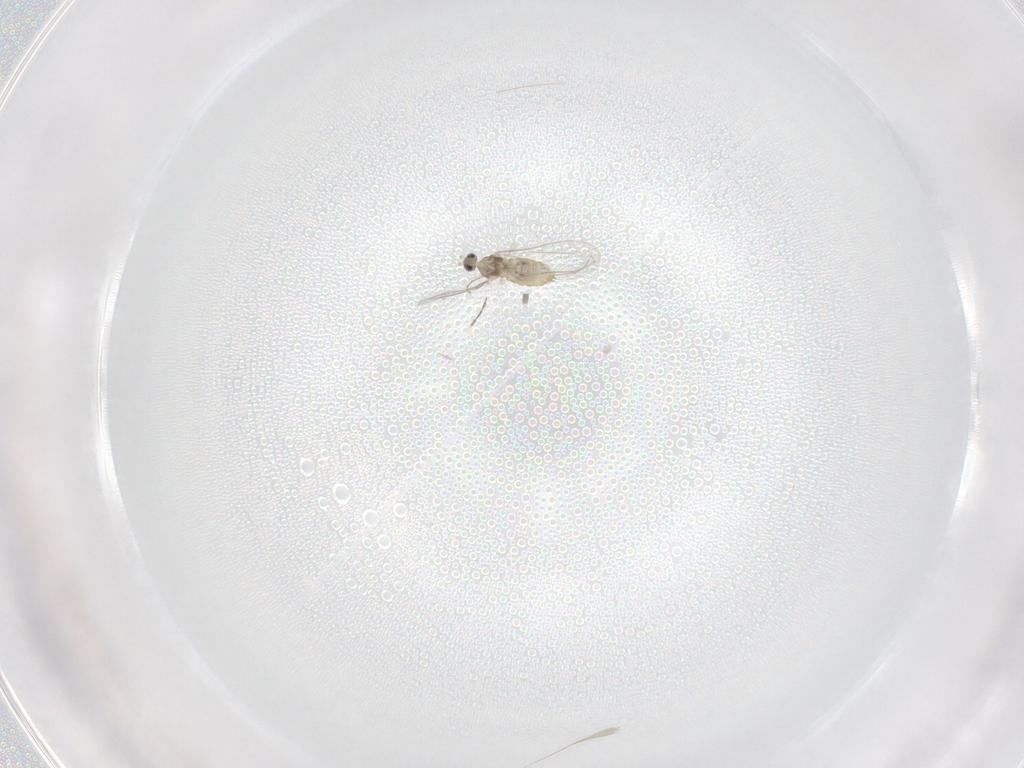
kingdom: Animalia
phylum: Arthropoda
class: Insecta
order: Diptera
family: Cecidomyiidae
